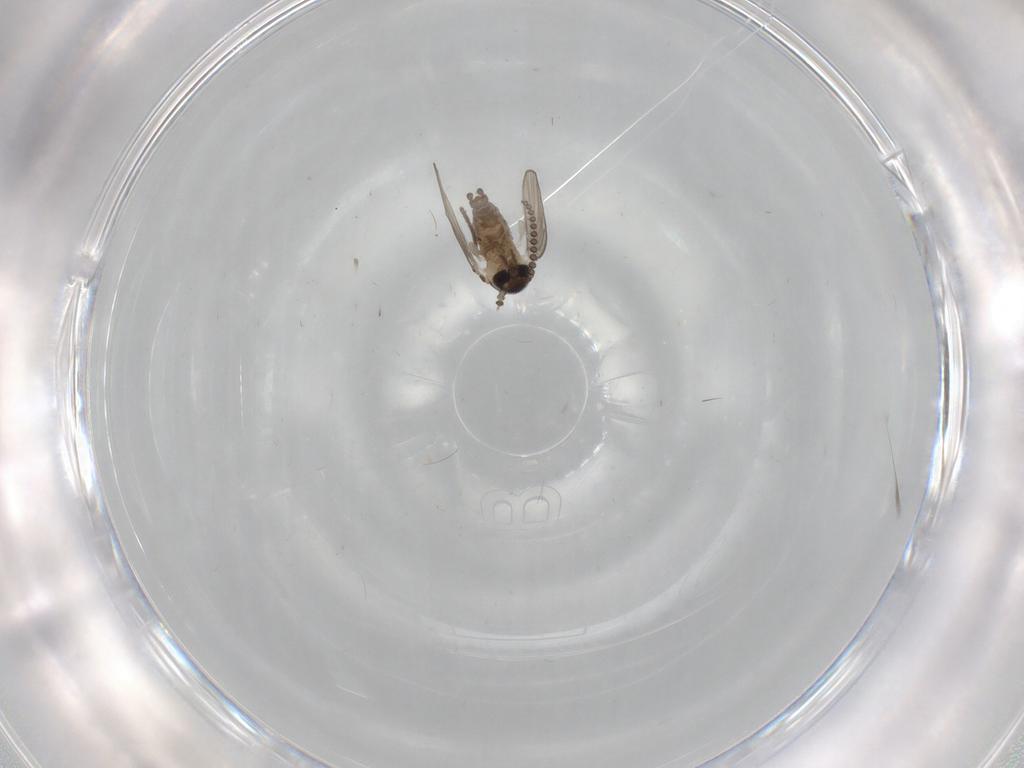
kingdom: Animalia
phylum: Arthropoda
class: Insecta
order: Diptera
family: Psychodidae
